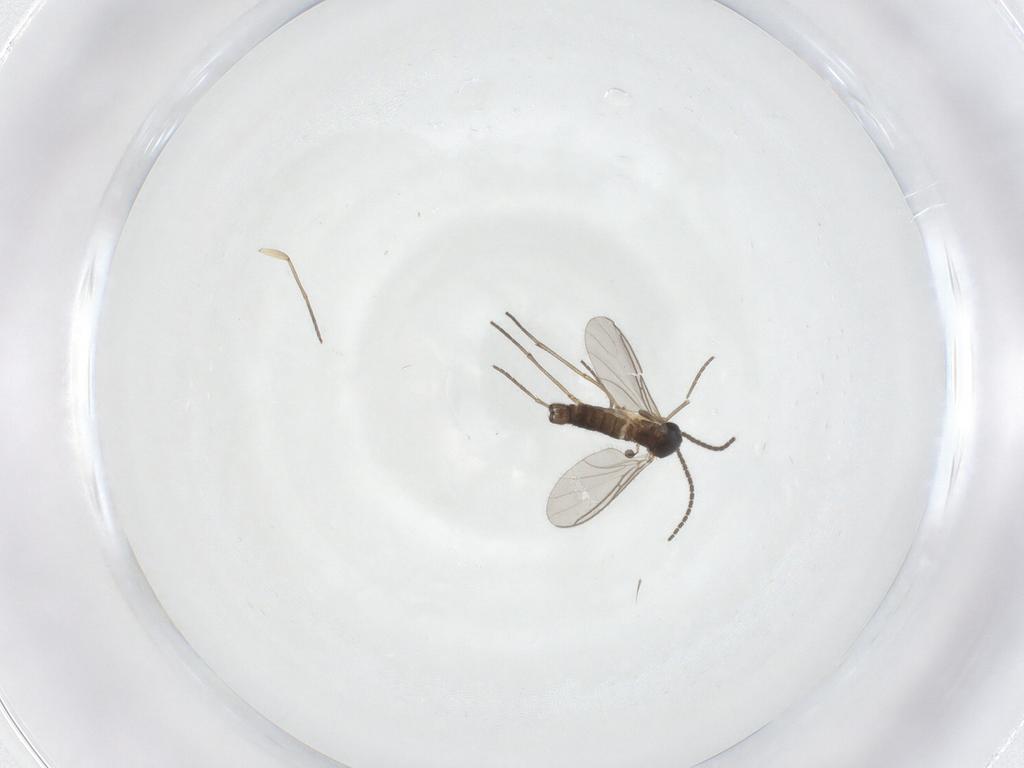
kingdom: Animalia
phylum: Arthropoda
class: Insecta
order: Diptera
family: Sciaridae
